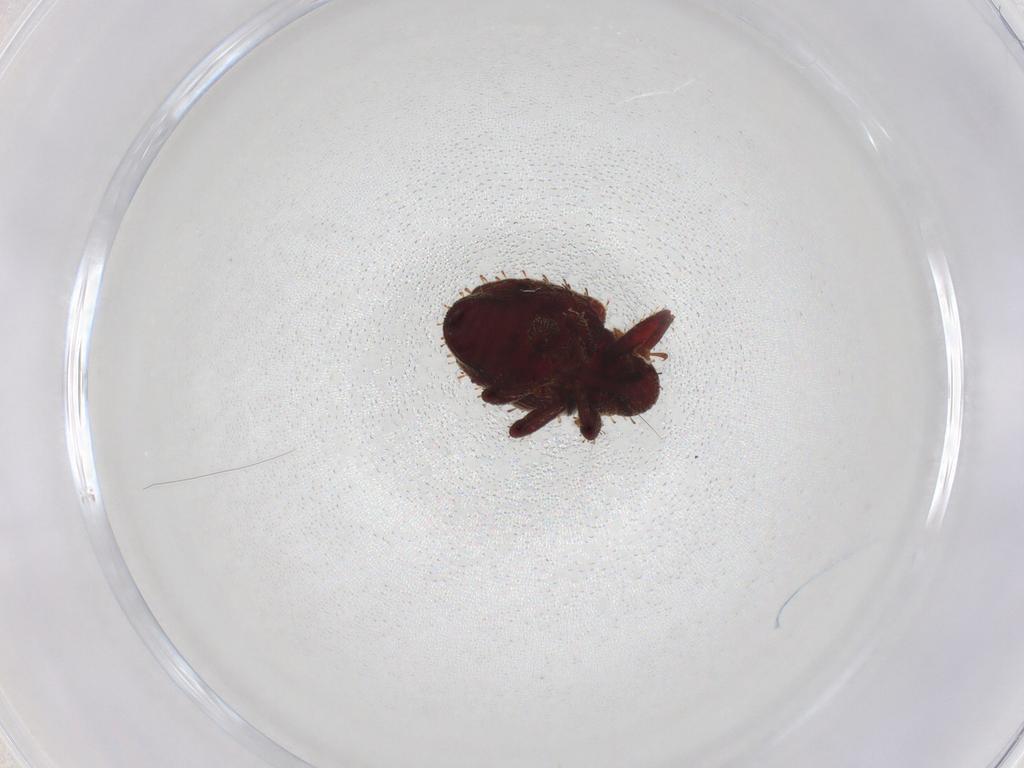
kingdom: Animalia
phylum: Arthropoda
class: Insecta
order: Coleoptera
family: Curculionidae
